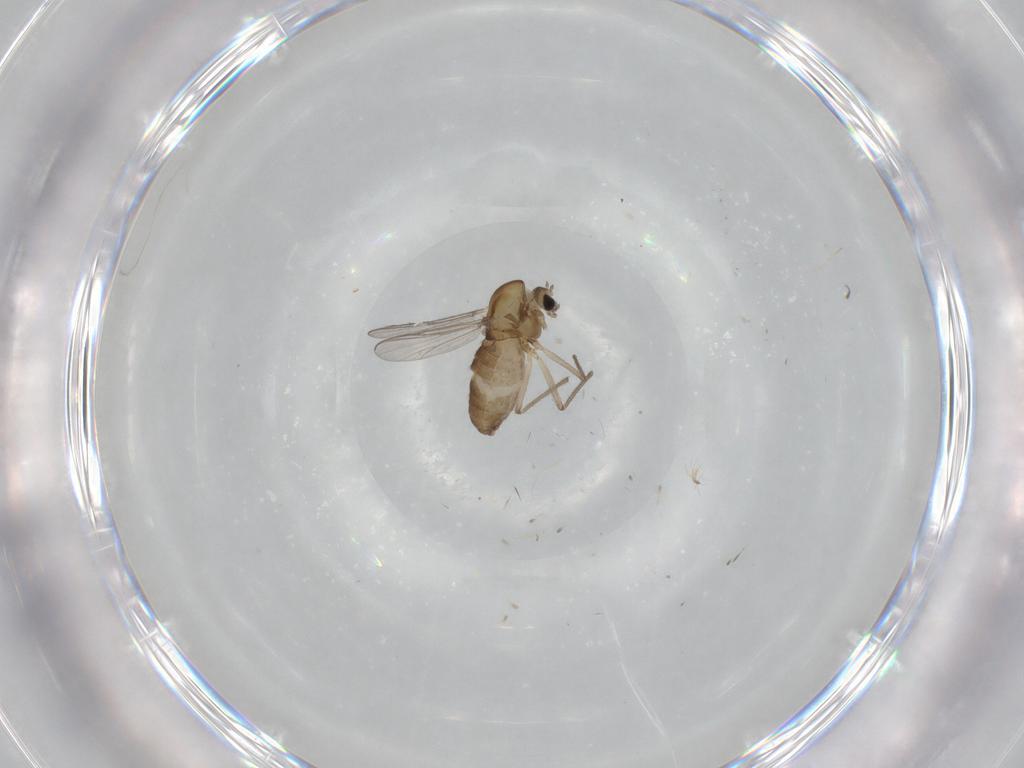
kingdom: Animalia
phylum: Arthropoda
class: Insecta
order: Diptera
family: Chironomidae
